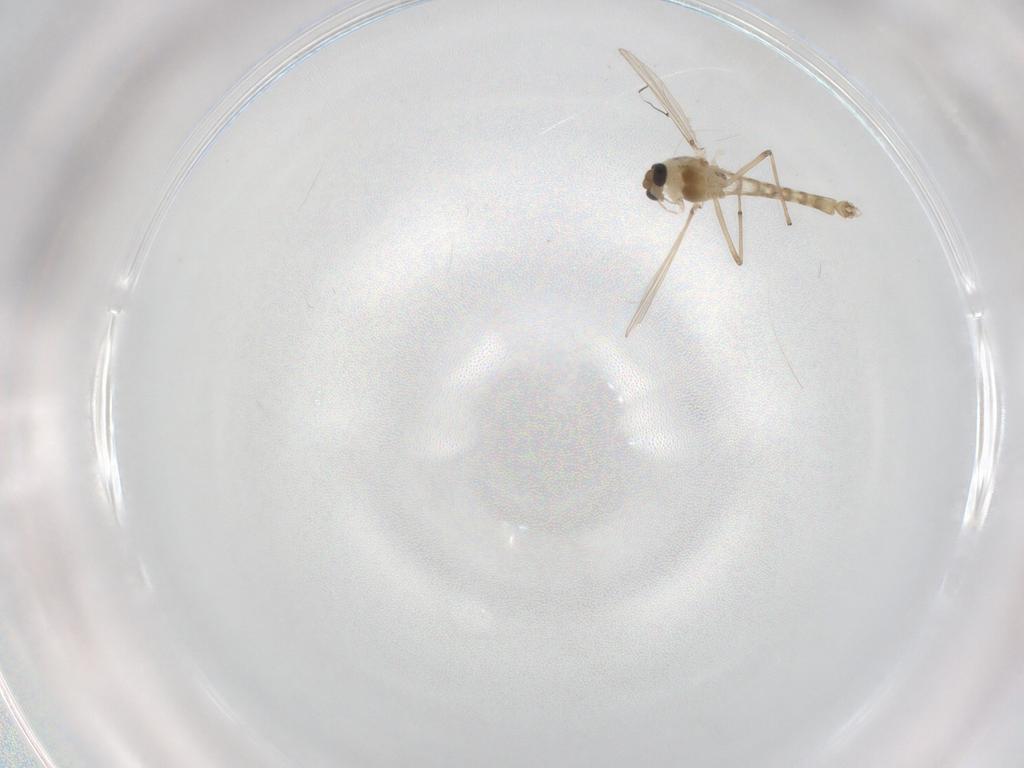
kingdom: Animalia
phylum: Arthropoda
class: Insecta
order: Diptera
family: Cecidomyiidae
